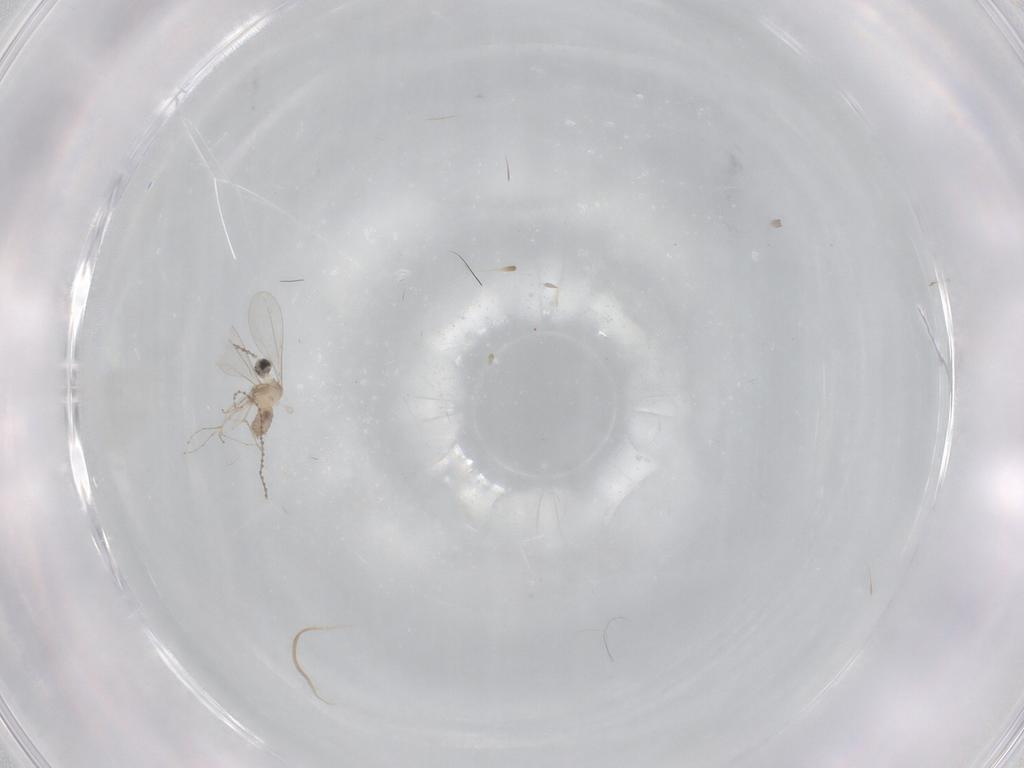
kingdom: Animalia
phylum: Arthropoda
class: Insecta
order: Diptera
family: Cecidomyiidae
